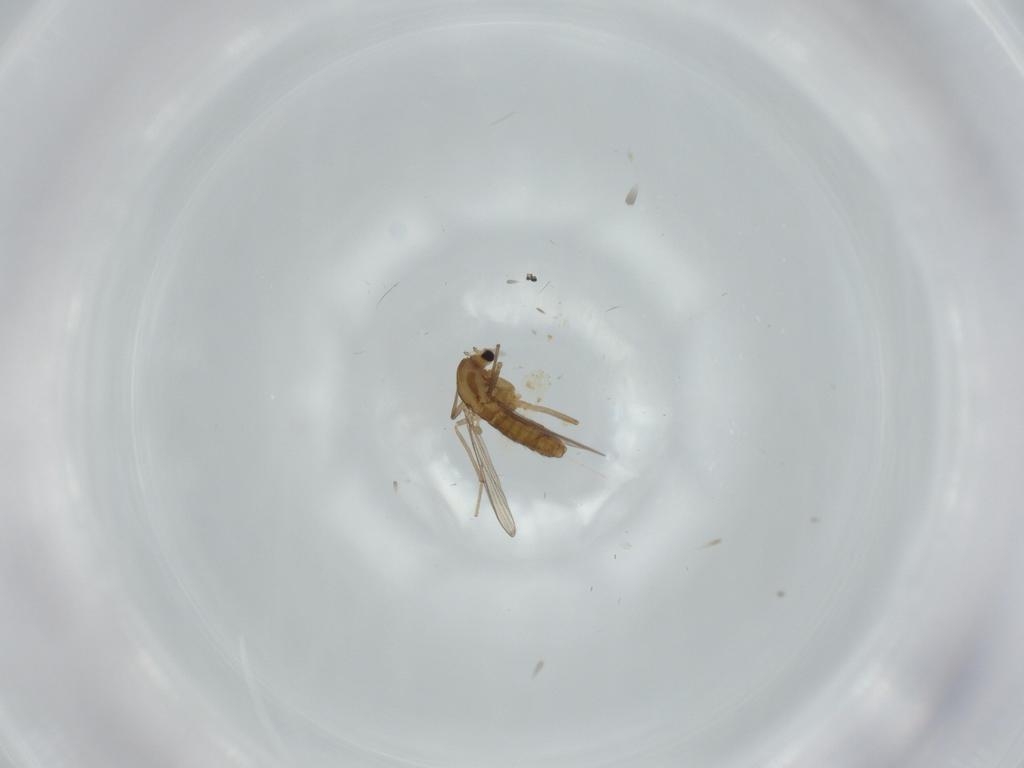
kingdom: Animalia
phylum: Arthropoda
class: Insecta
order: Diptera
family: Chironomidae
